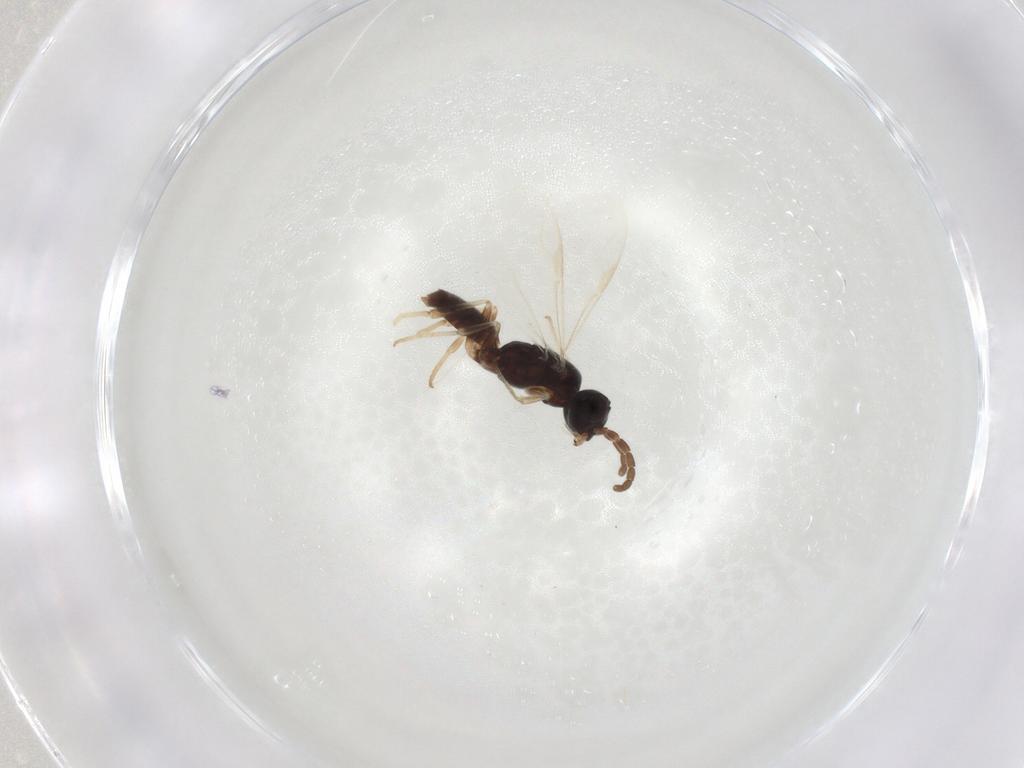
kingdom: Animalia
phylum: Arthropoda
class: Insecta
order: Hymenoptera
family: Dryinidae
